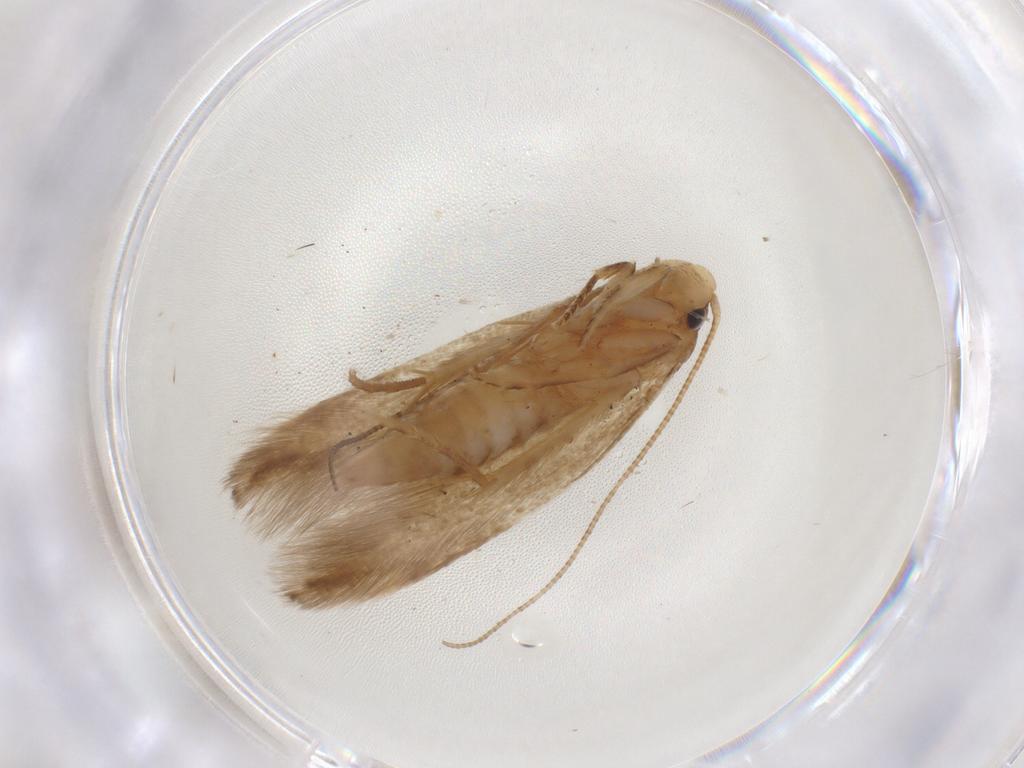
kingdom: Animalia
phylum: Arthropoda
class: Insecta
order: Lepidoptera
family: Tineidae
